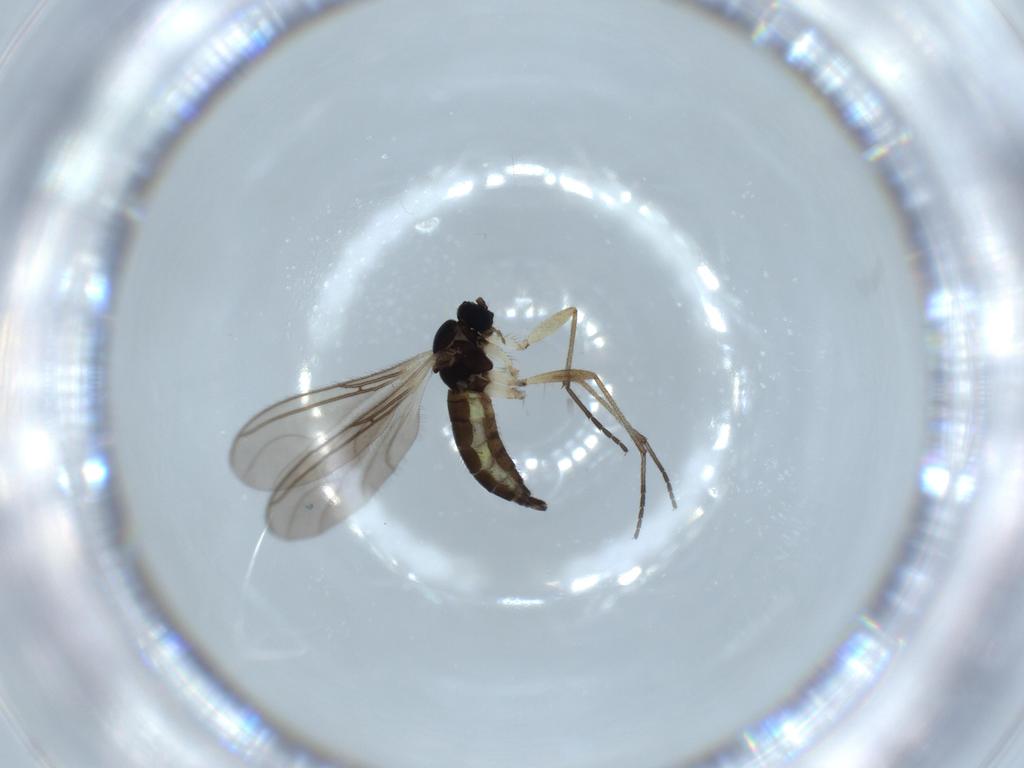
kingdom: Animalia
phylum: Arthropoda
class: Insecta
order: Diptera
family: Sciaridae
